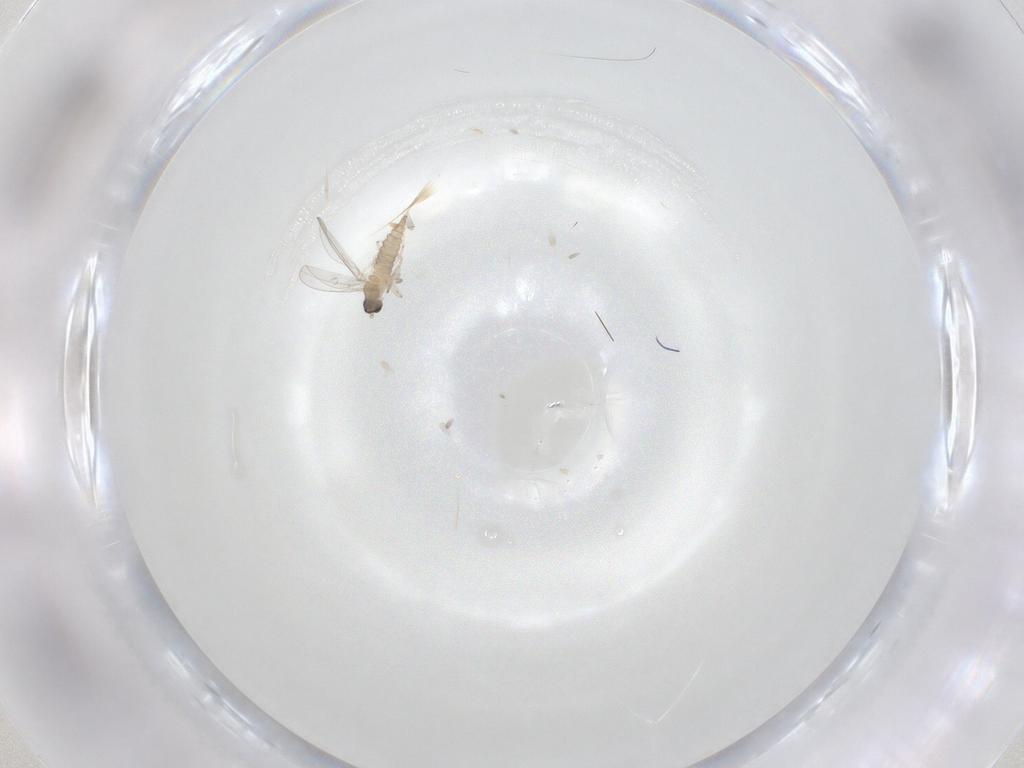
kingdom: Animalia
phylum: Arthropoda
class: Insecta
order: Diptera
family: Cecidomyiidae
